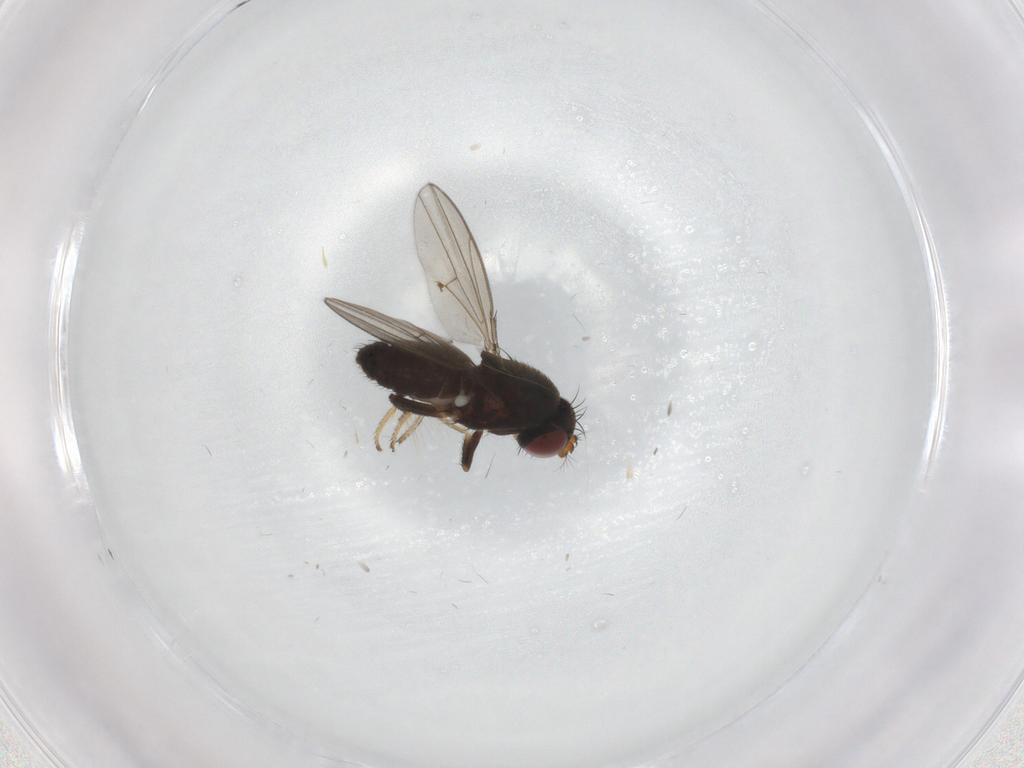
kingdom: Animalia
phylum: Arthropoda
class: Insecta
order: Diptera
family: Chironomidae
